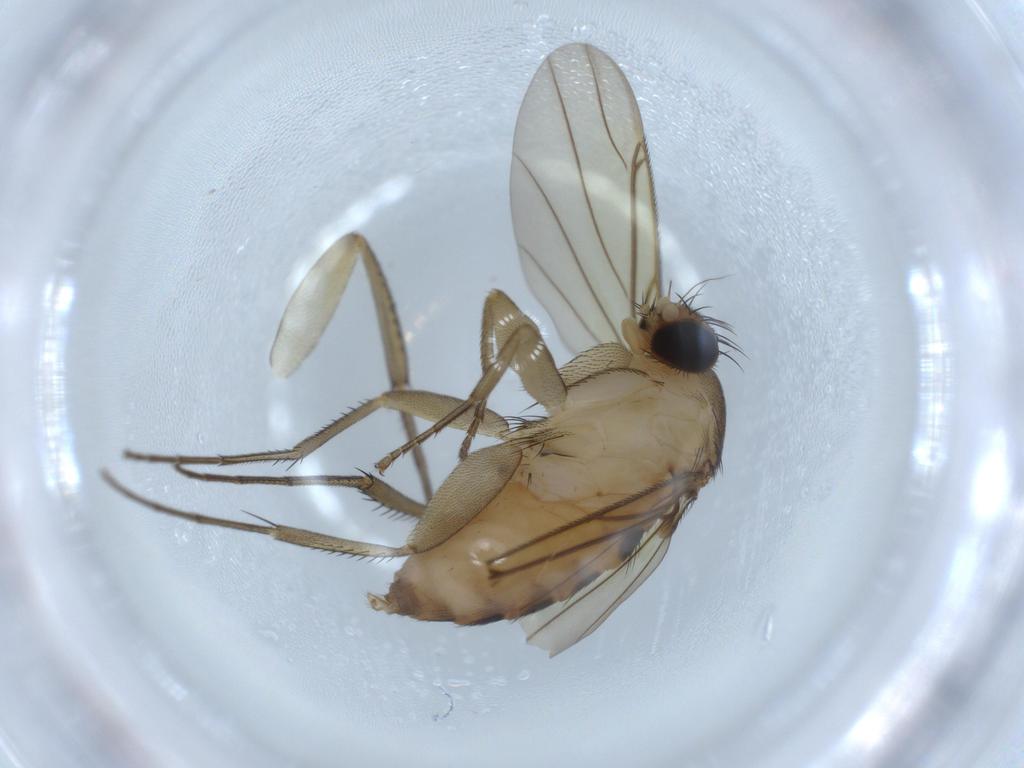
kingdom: Animalia
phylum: Arthropoda
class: Insecta
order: Diptera
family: Phoridae
